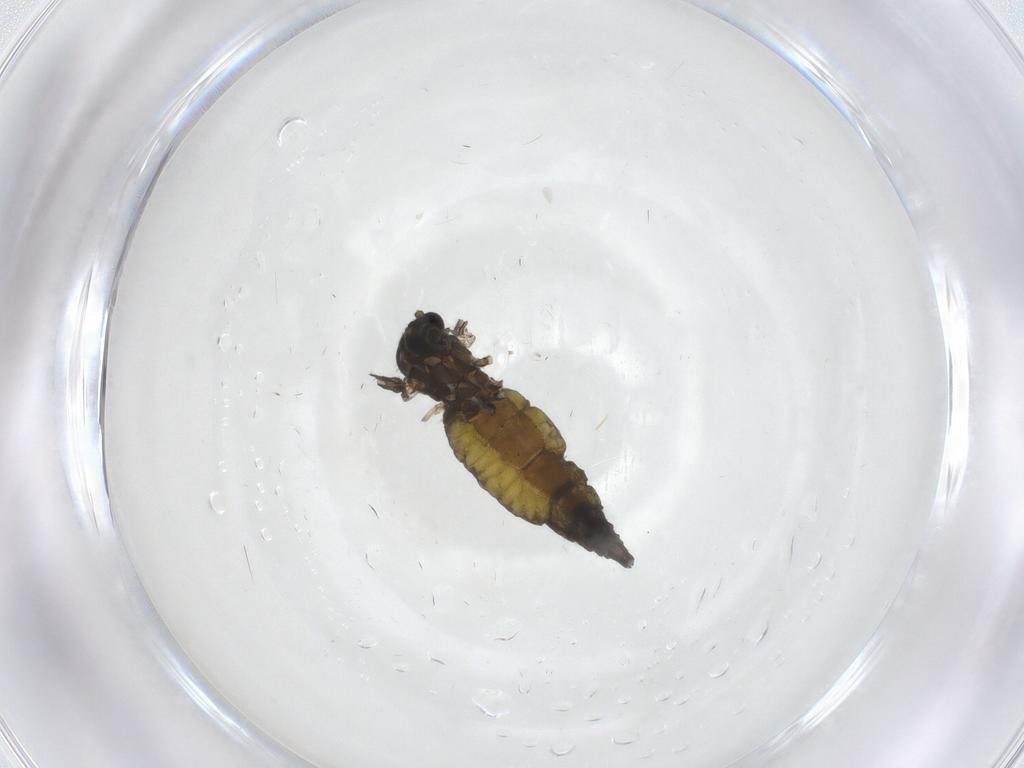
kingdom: Animalia
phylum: Arthropoda
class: Insecta
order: Diptera
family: Sciaridae
